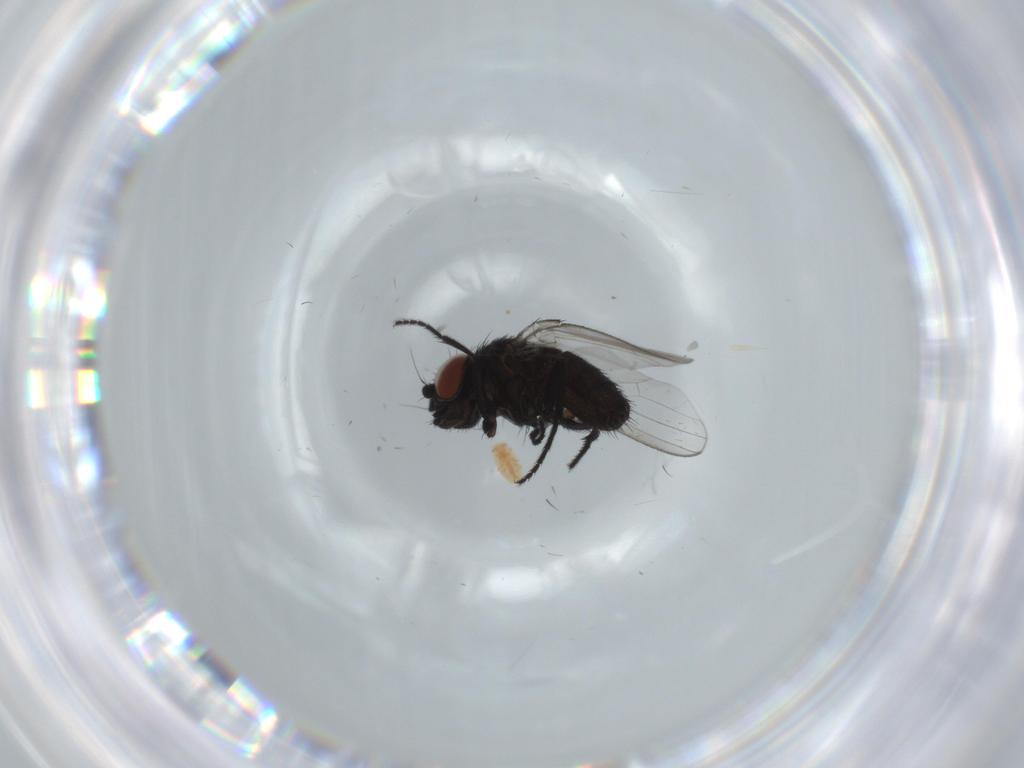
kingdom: Animalia
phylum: Arthropoda
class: Insecta
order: Diptera
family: Milichiidae
